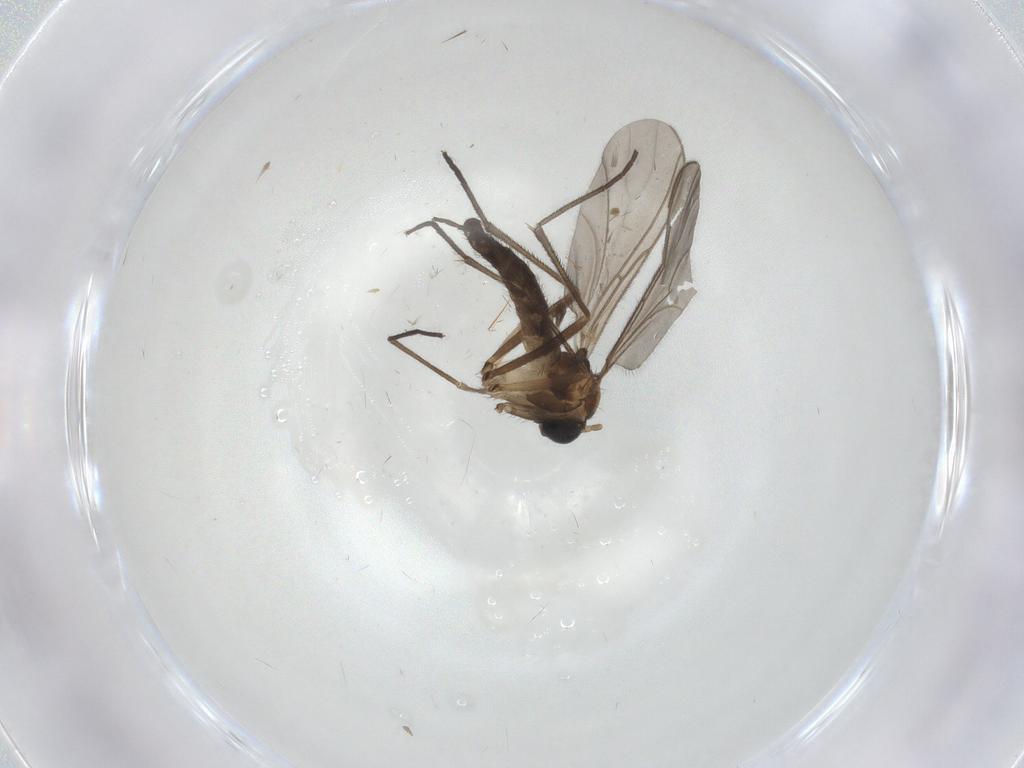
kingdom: Animalia
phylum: Arthropoda
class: Insecta
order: Diptera
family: Sciaridae
